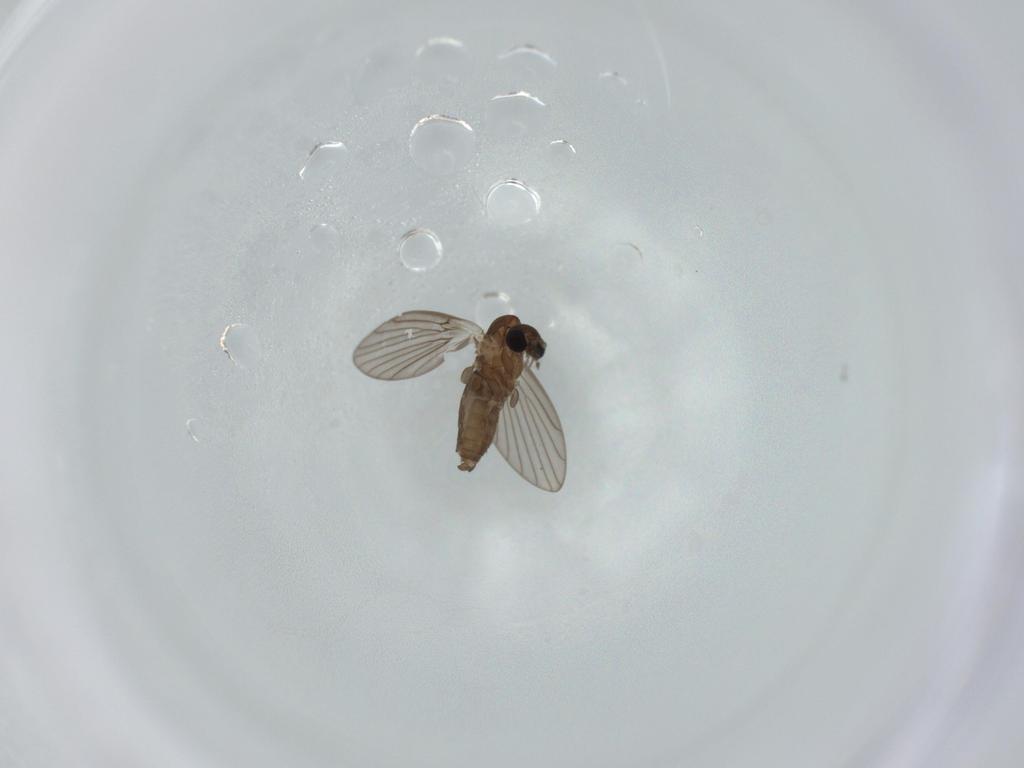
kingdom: Animalia
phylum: Arthropoda
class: Insecta
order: Diptera
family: Psychodidae
